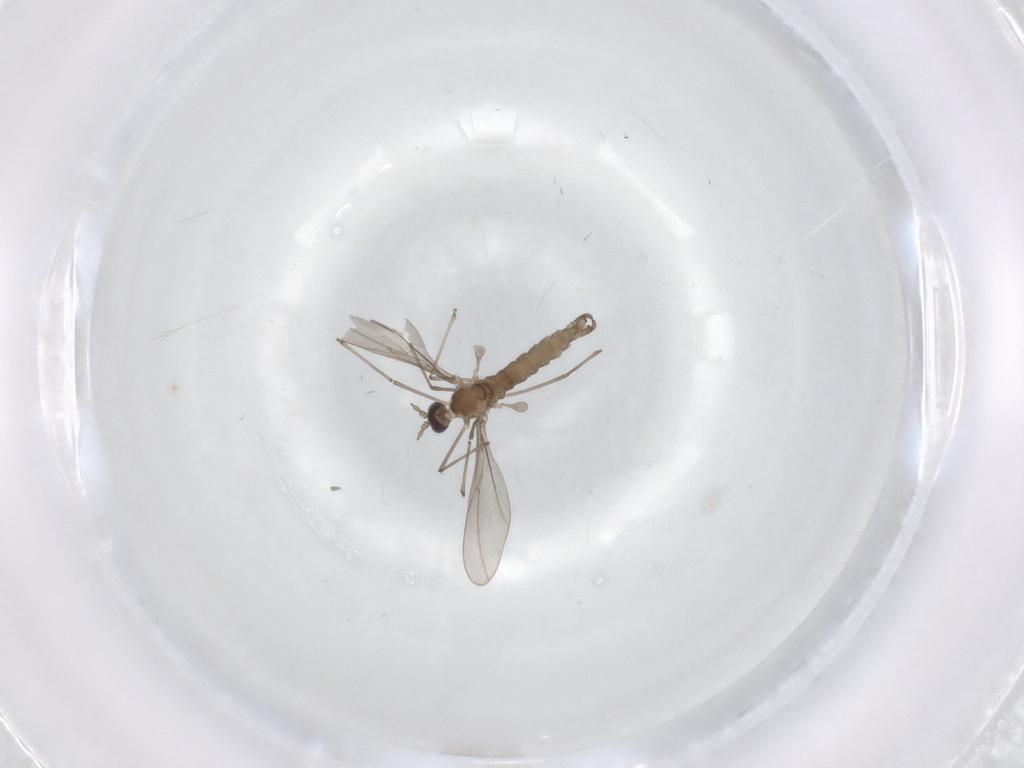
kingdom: Animalia
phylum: Arthropoda
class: Insecta
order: Diptera
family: Cecidomyiidae
